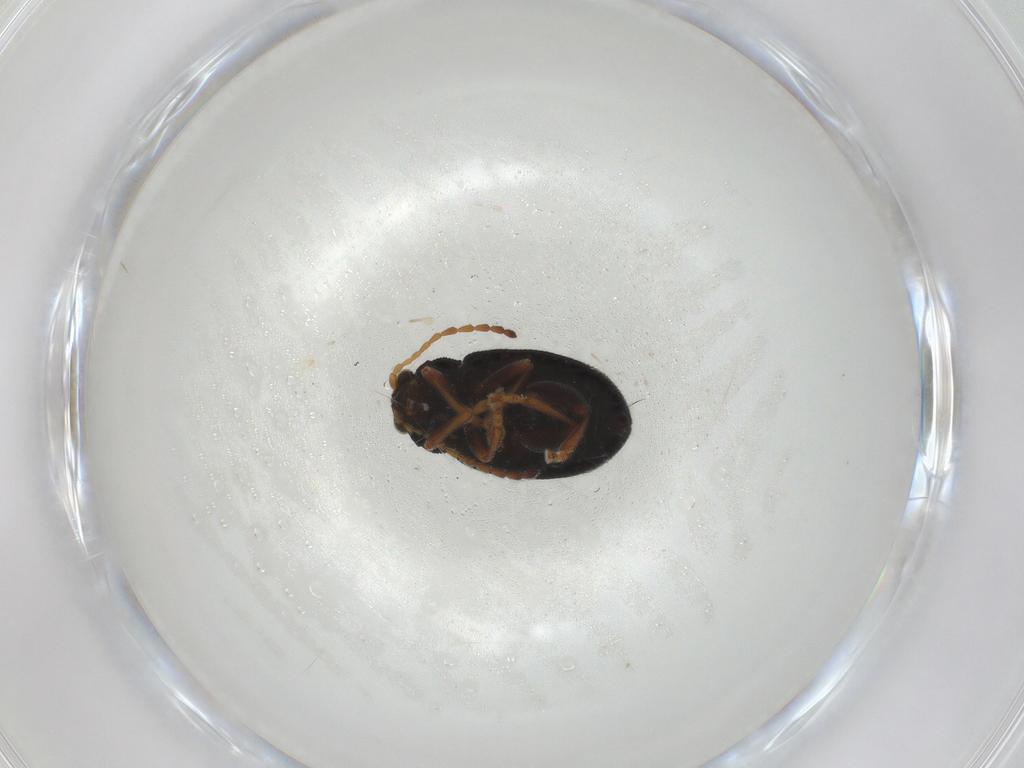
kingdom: Animalia
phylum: Arthropoda
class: Insecta
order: Coleoptera
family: Chrysomelidae
